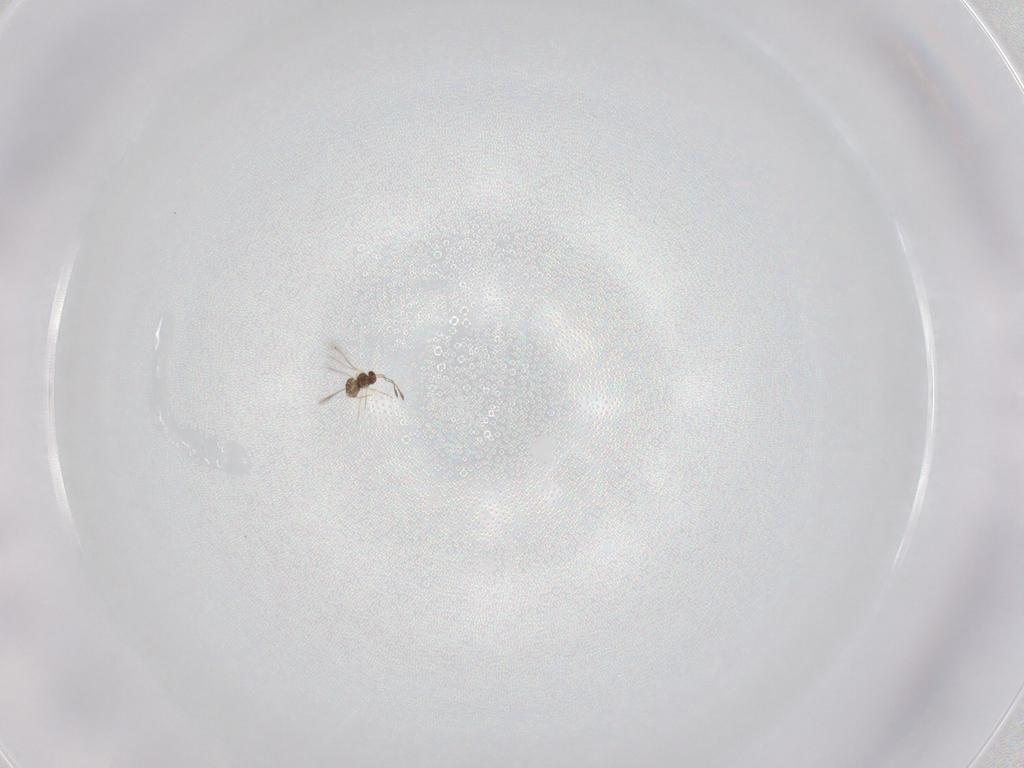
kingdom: Animalia
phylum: Arthropoda
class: Insecta
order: Hymenoptera
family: Mymaridae
